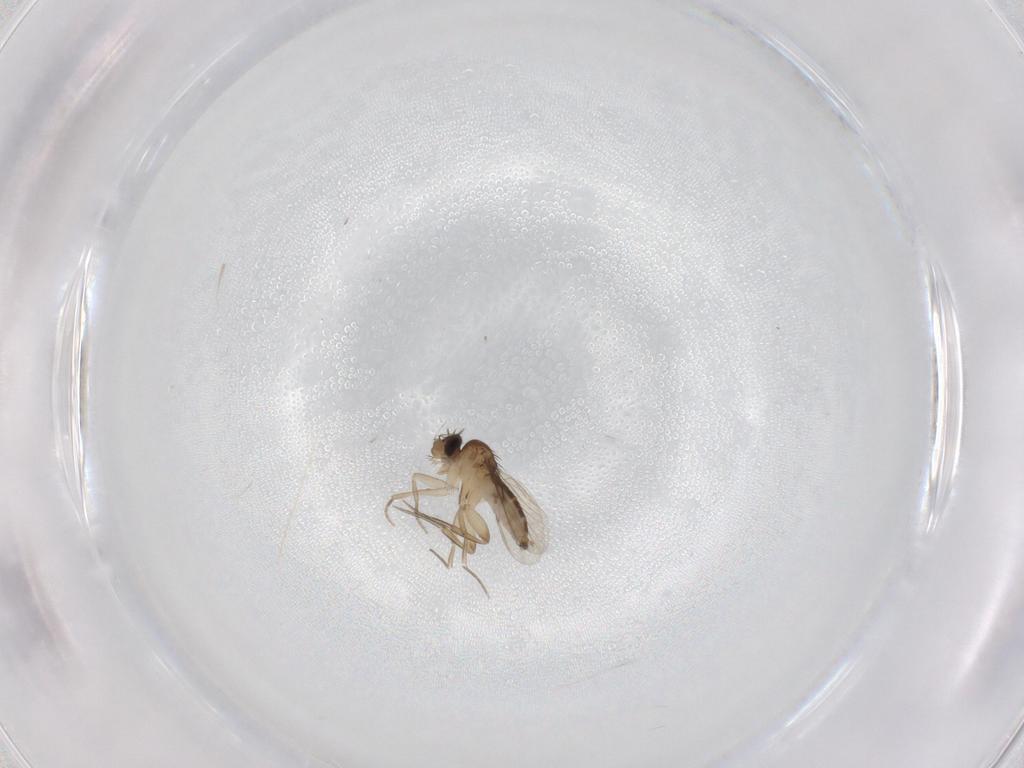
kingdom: Animalia
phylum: Arthropoda
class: Insecta
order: Diptera
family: Phoridae
